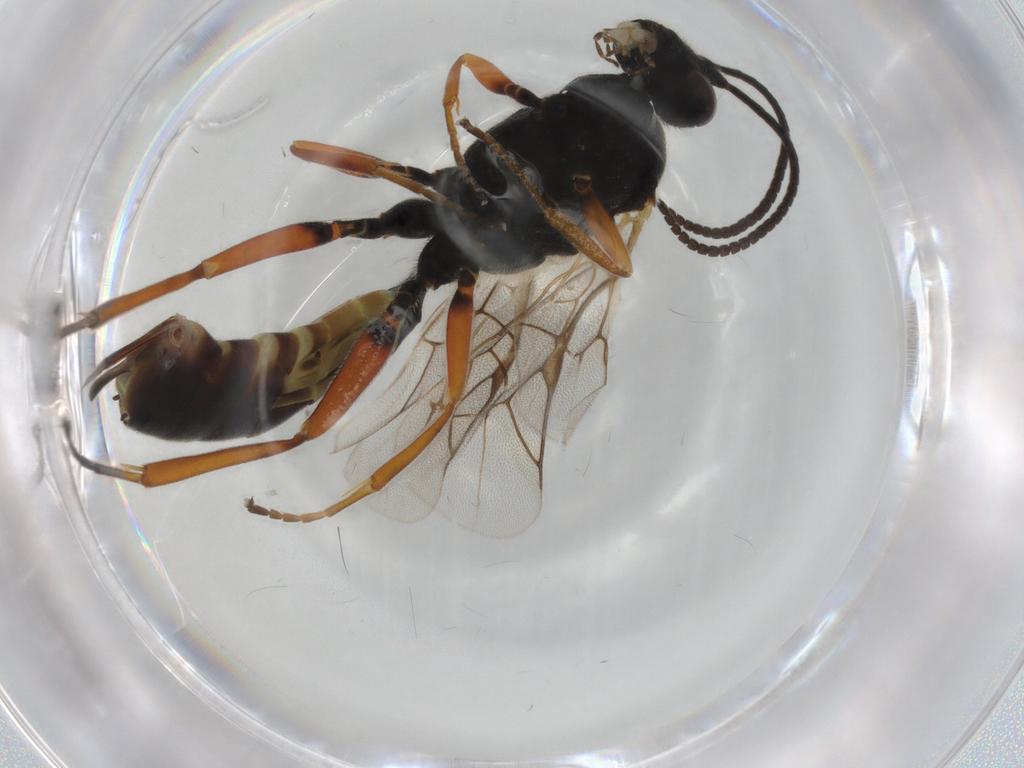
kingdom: Animalia
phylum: Arthropoda
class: Insecta
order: Hymenoptera
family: Ichneumonidae
